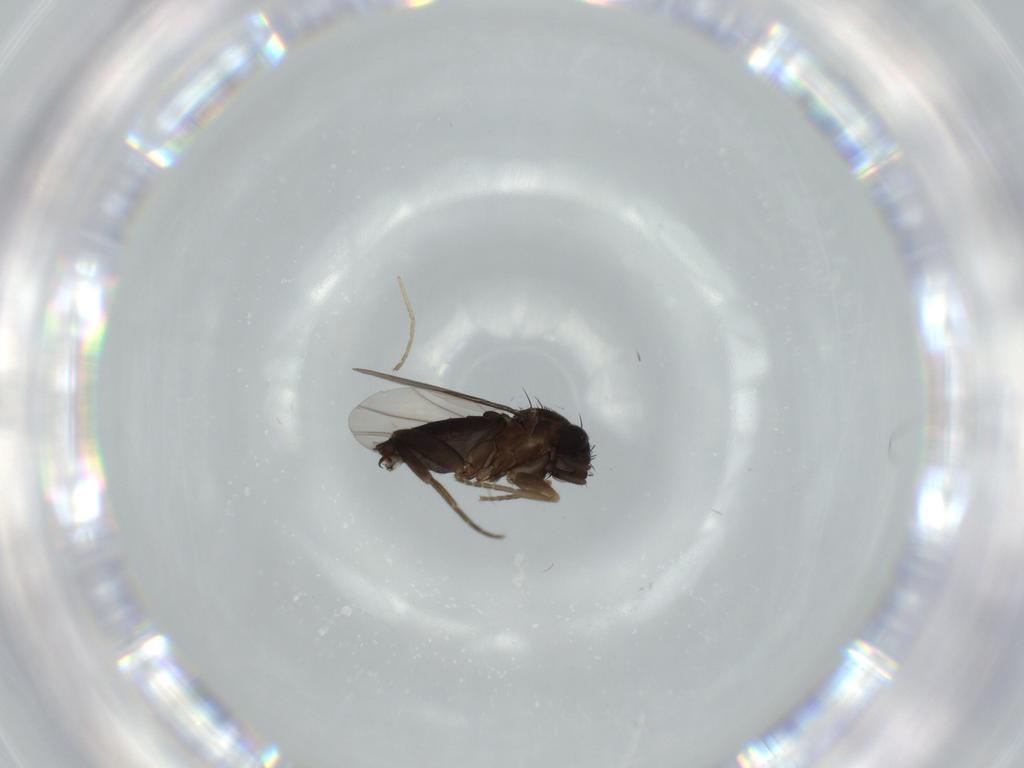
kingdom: Animalia
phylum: Arthropoda
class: Insecta
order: Diptera
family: Phoridae
